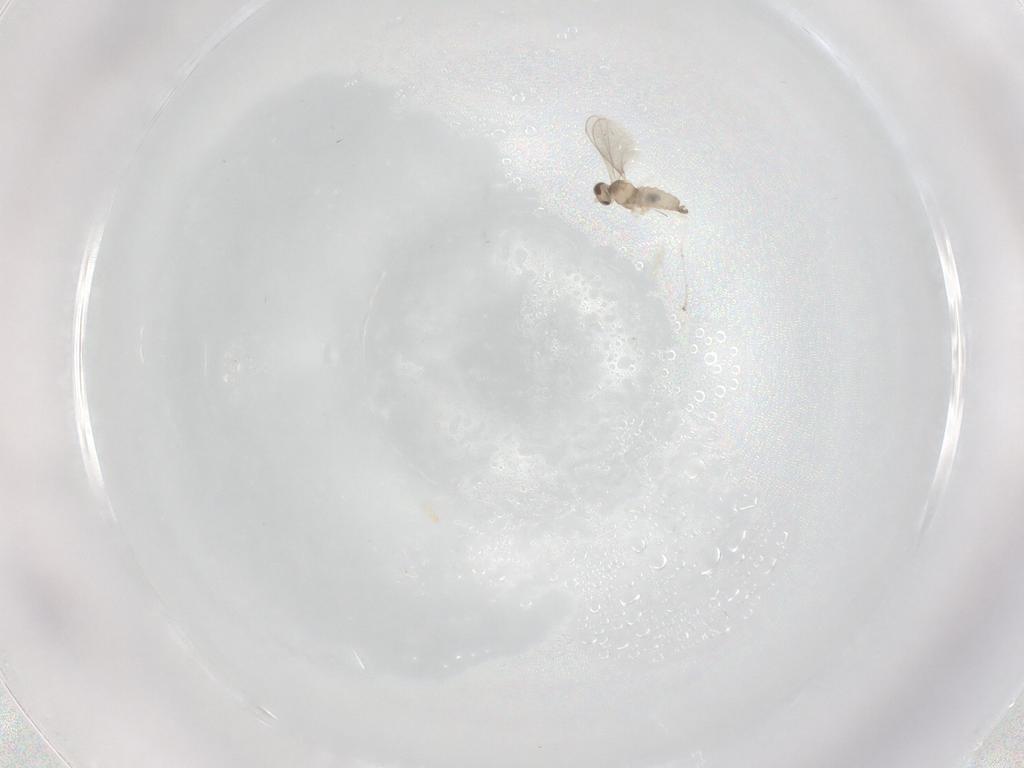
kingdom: Animalia
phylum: Arthropoda
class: Insecta
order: Diptera
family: Cecidomyiidae
